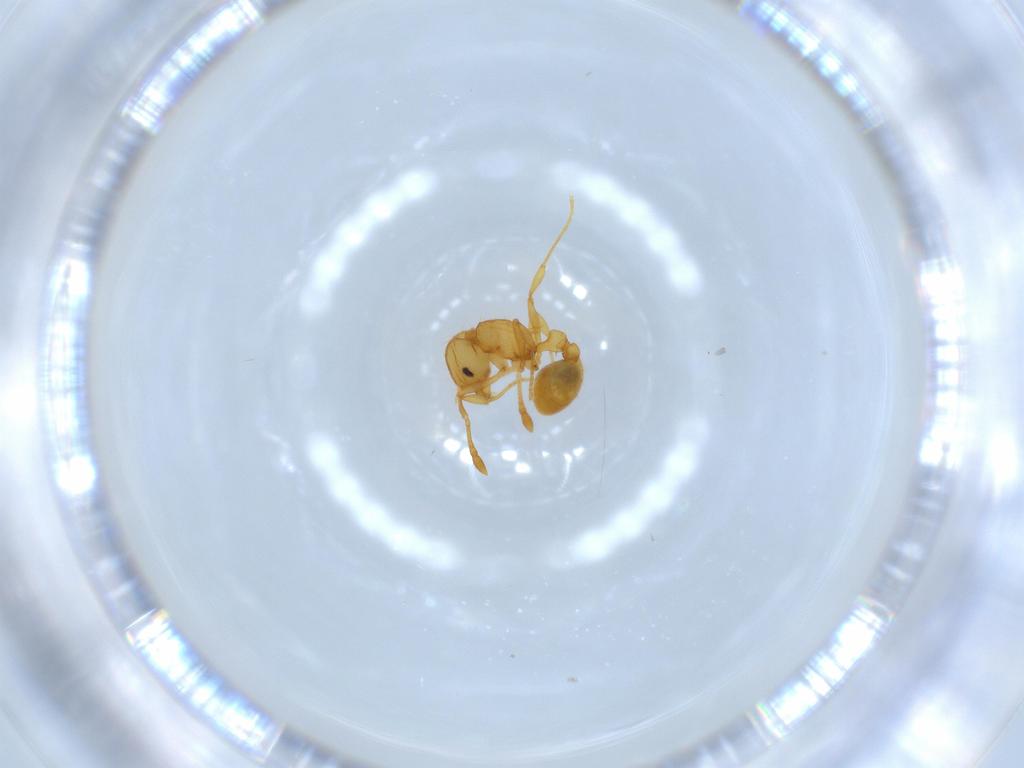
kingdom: Animalia
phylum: Arthropoda
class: Insecta
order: Hymenoptera
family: Formicidae
